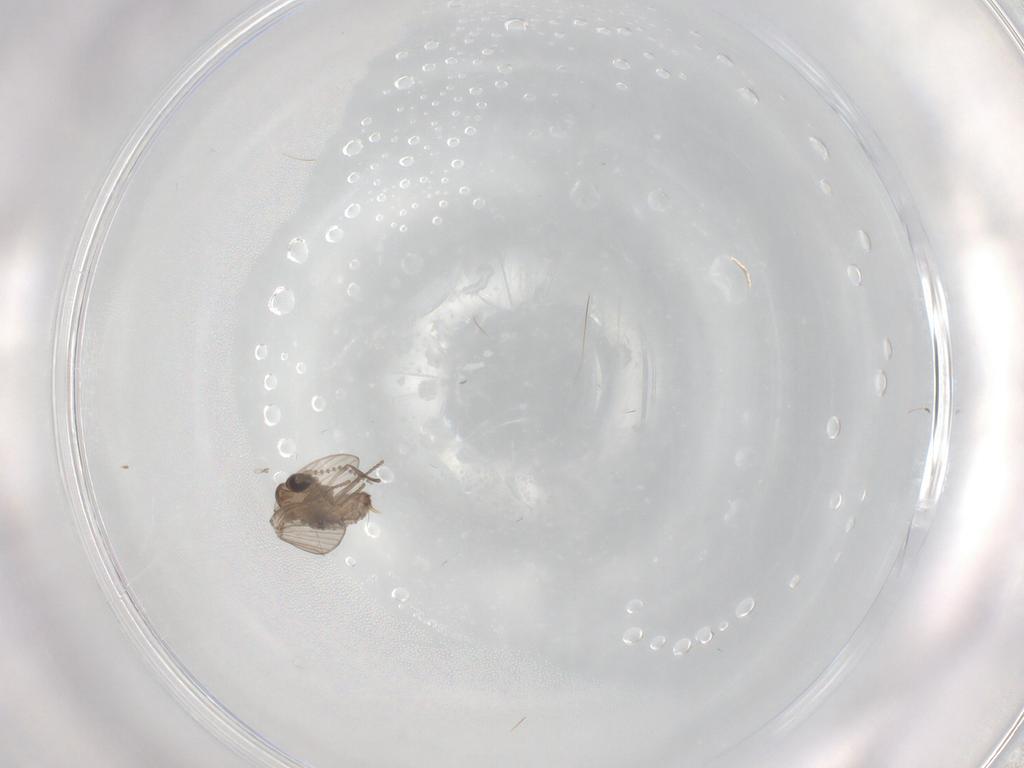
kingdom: Animalia
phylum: Arthropoda
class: Insecta
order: Diptera
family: Psychodidae
